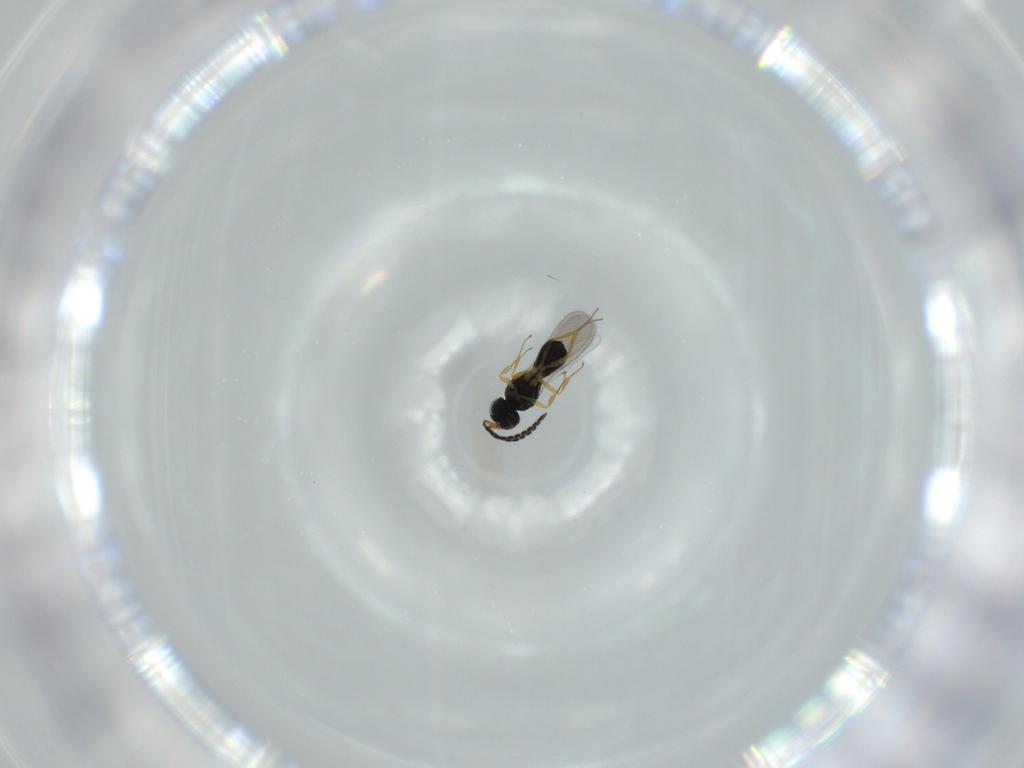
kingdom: Animalia
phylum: Arthropoda
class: Insecta
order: Hymenoptera
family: Scelionidae
